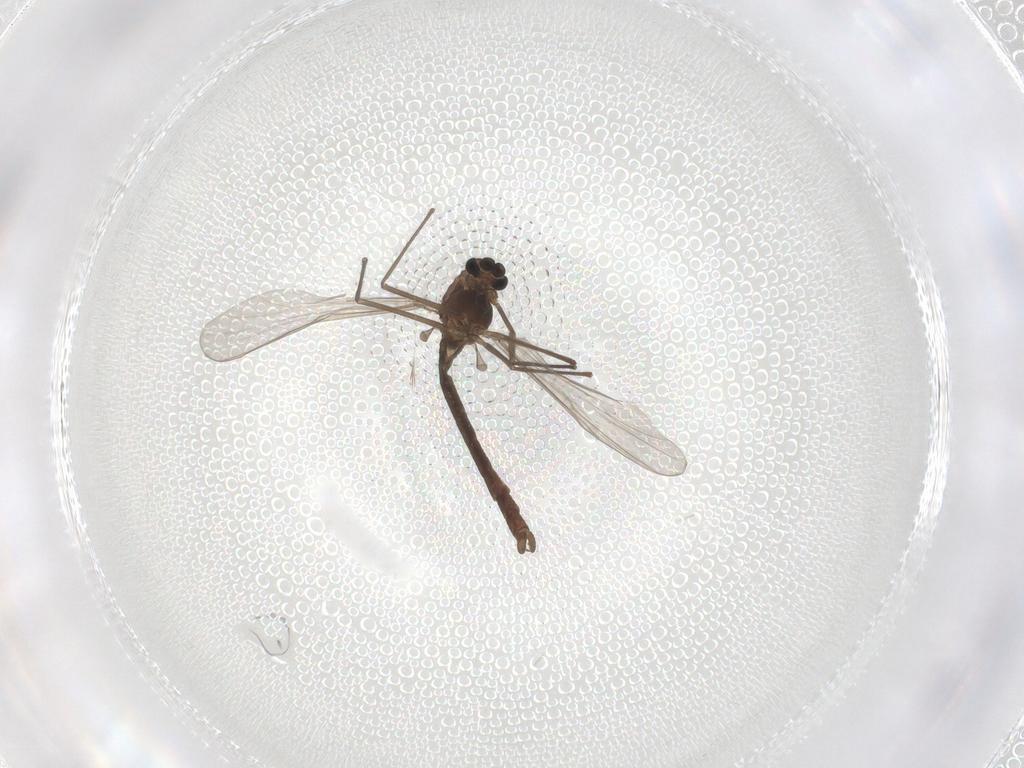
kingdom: Animalia
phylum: Arthropoda
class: Insecta
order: Diptera
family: Chironomidae
